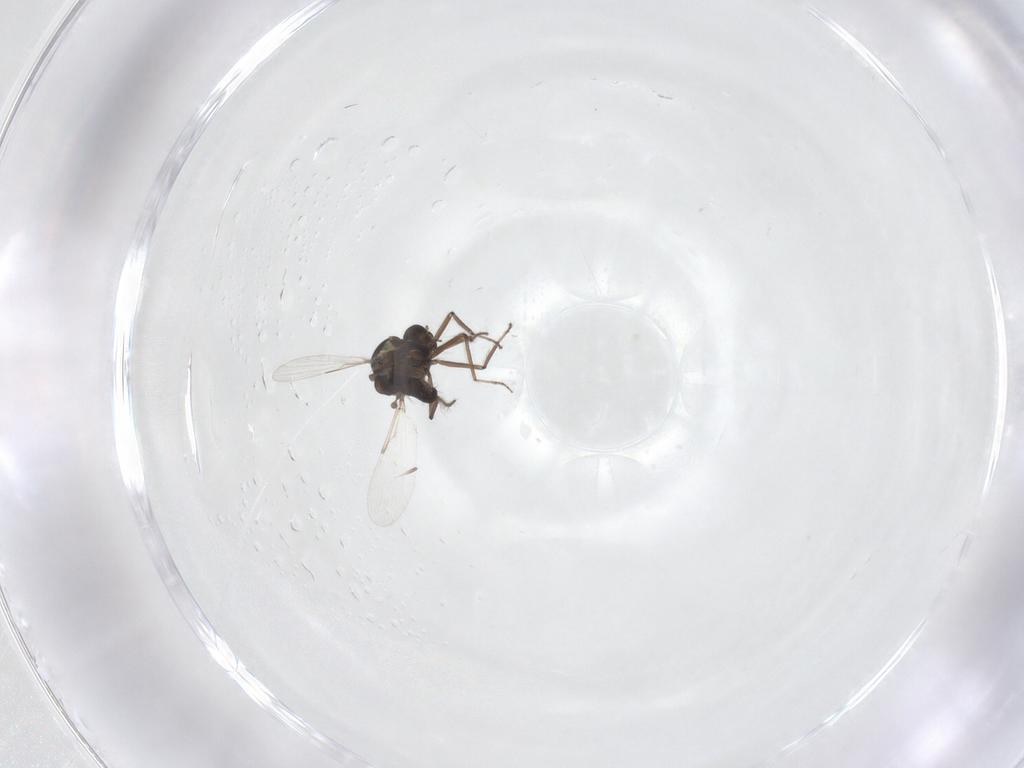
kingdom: Animalia
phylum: Arthropoda
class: Insecta
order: Diptera
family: Ceratopogonidae
